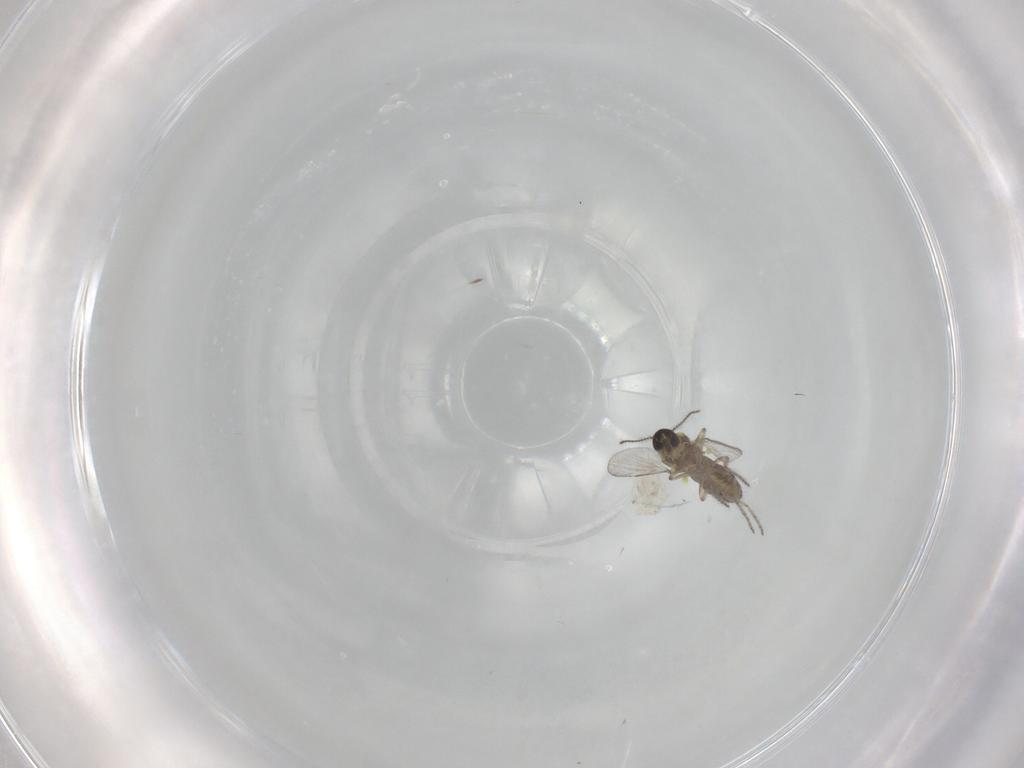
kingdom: Animalia
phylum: Arthropoda
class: Insecta
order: Diptera
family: Ceratopogonidae
